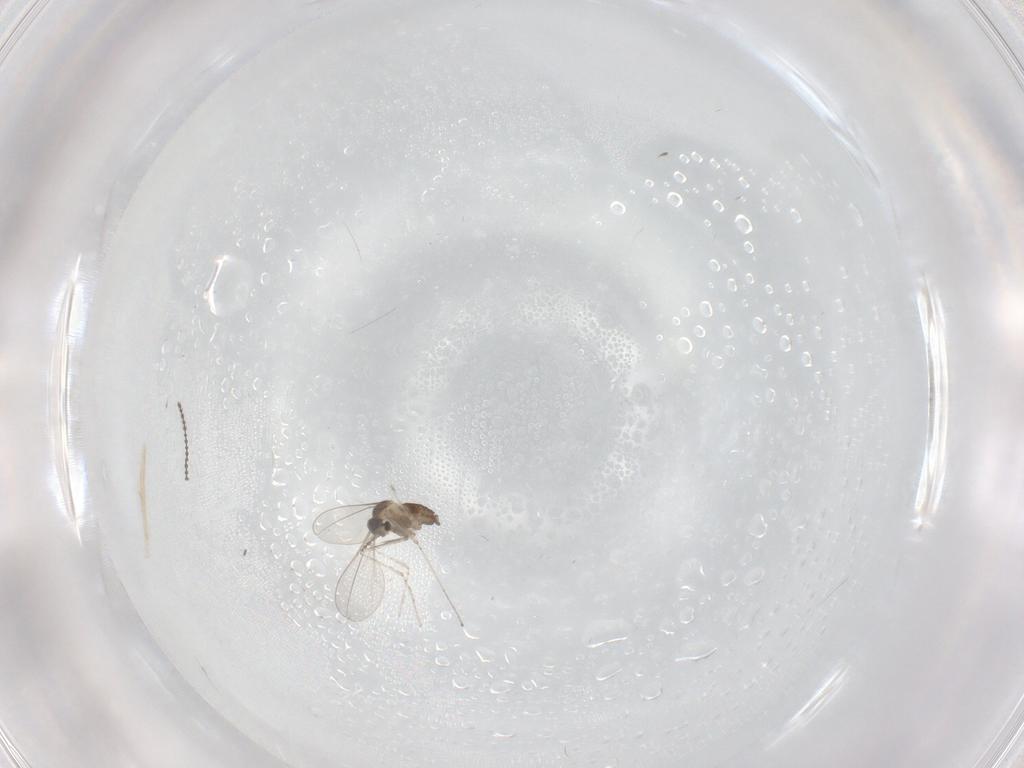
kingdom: Animalia
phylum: Arthropoda
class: Insecta
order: Diptera
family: Cecidomyiidae
